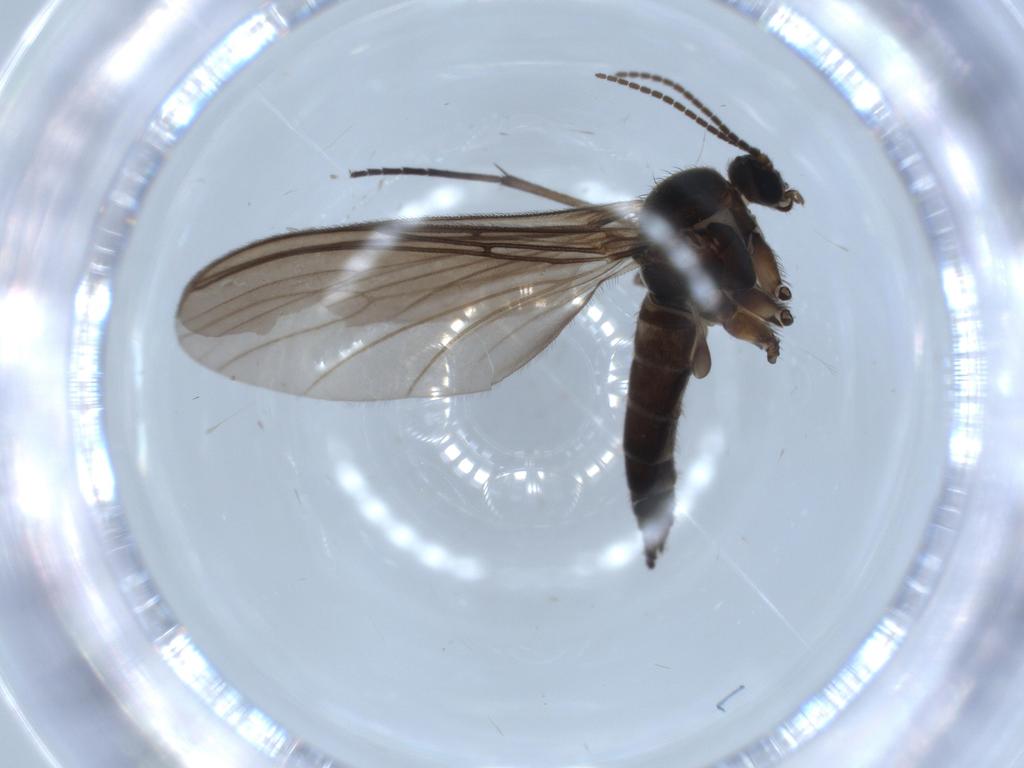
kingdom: Animalia
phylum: Arthropoda
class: Insecta
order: Diptera
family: Sciaridae
